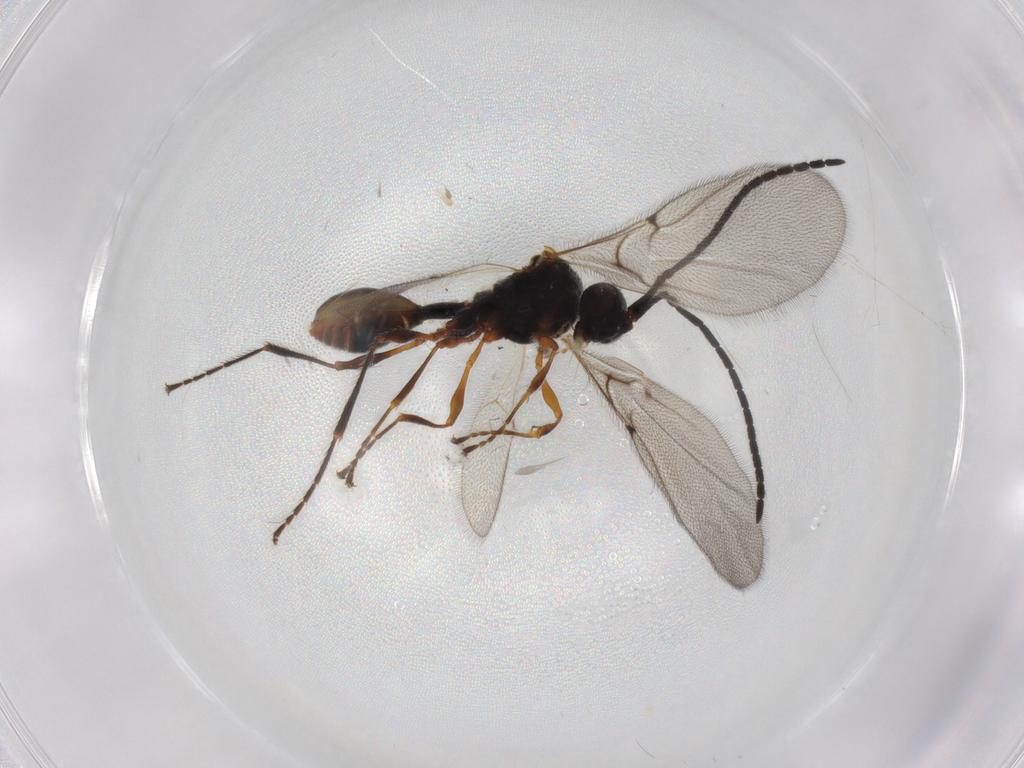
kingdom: Animalia
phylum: Arthropoda
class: Insecta
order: Hymenoptera
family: Diapriidae
